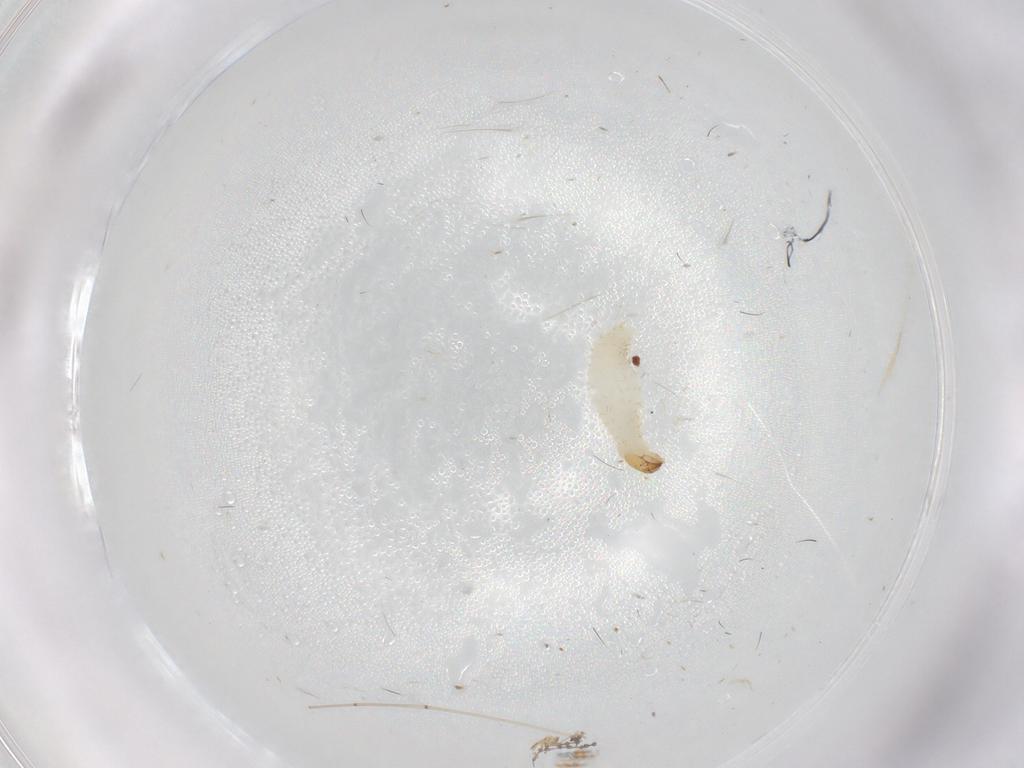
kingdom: Animalia
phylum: Arthropoda
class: Insecta
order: Coleoptera
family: Curculionidae
